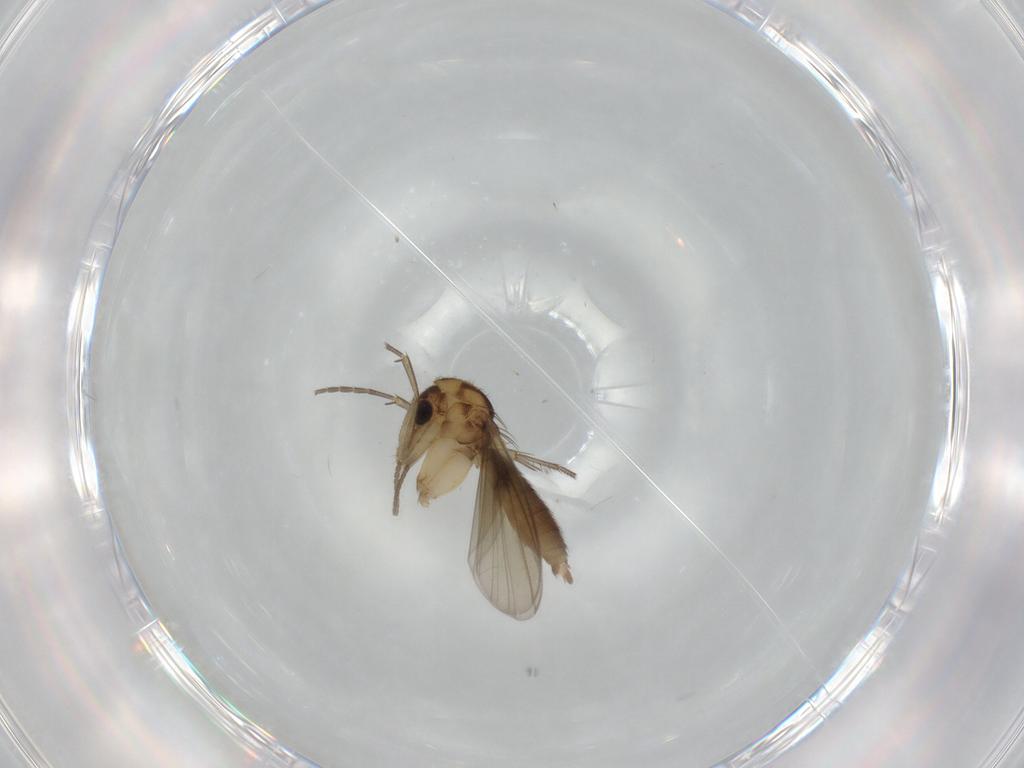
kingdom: Animalia
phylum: Arthropoda
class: Insecta
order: Diptera
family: Mycetophilidae
